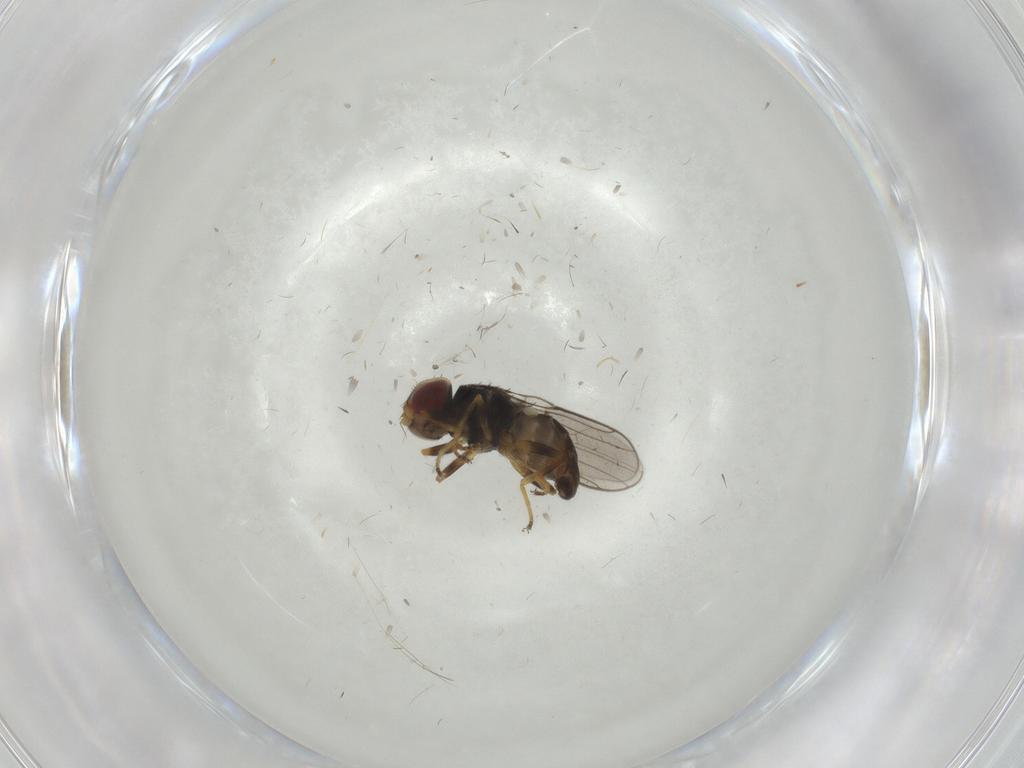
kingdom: Animalia
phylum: Arthropoda
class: Insecta
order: Diptera
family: Chloropidae
